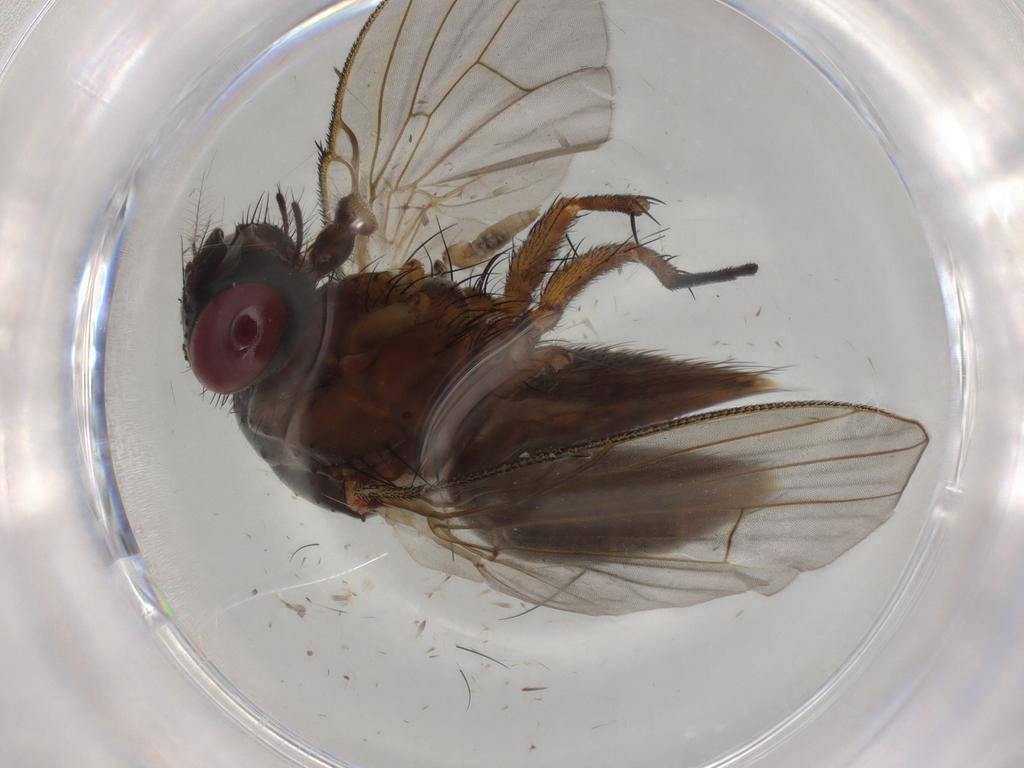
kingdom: Animalia
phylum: Arthropoda
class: Insecta
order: Diptera
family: Muscidae
